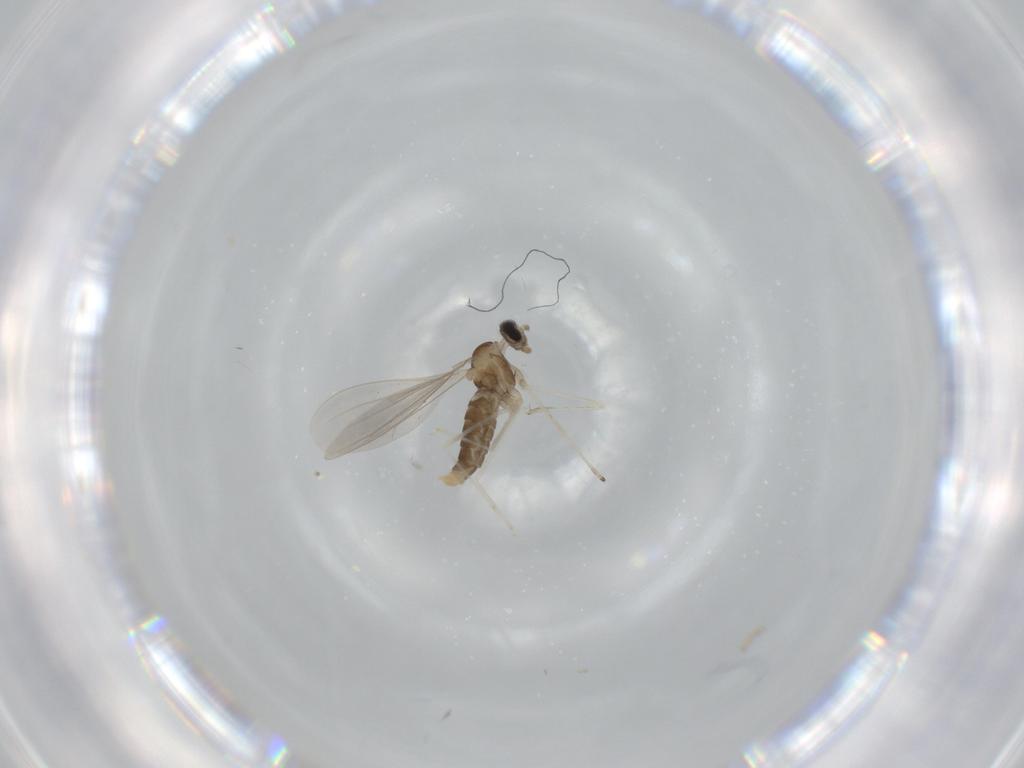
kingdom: Animalia
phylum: Arthropoda
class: Insecta
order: Diptera
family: Cecidomyiidae
